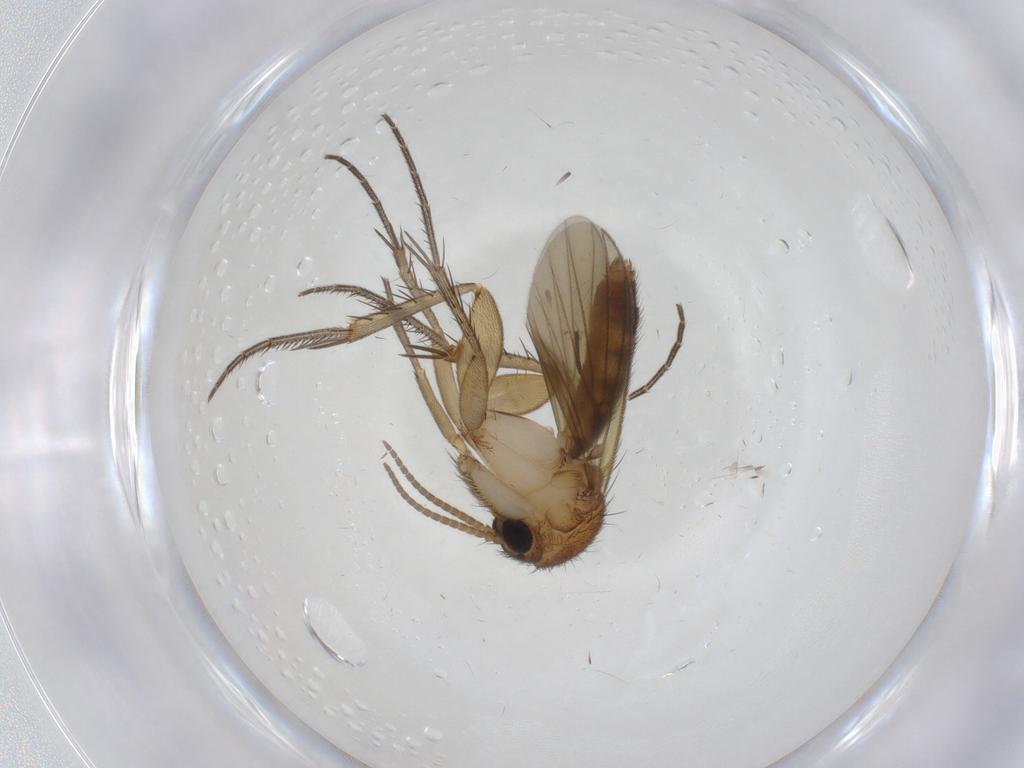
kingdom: Animalia
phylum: Arthropoda
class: Insecta
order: Diptera
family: Mycetophilidae
